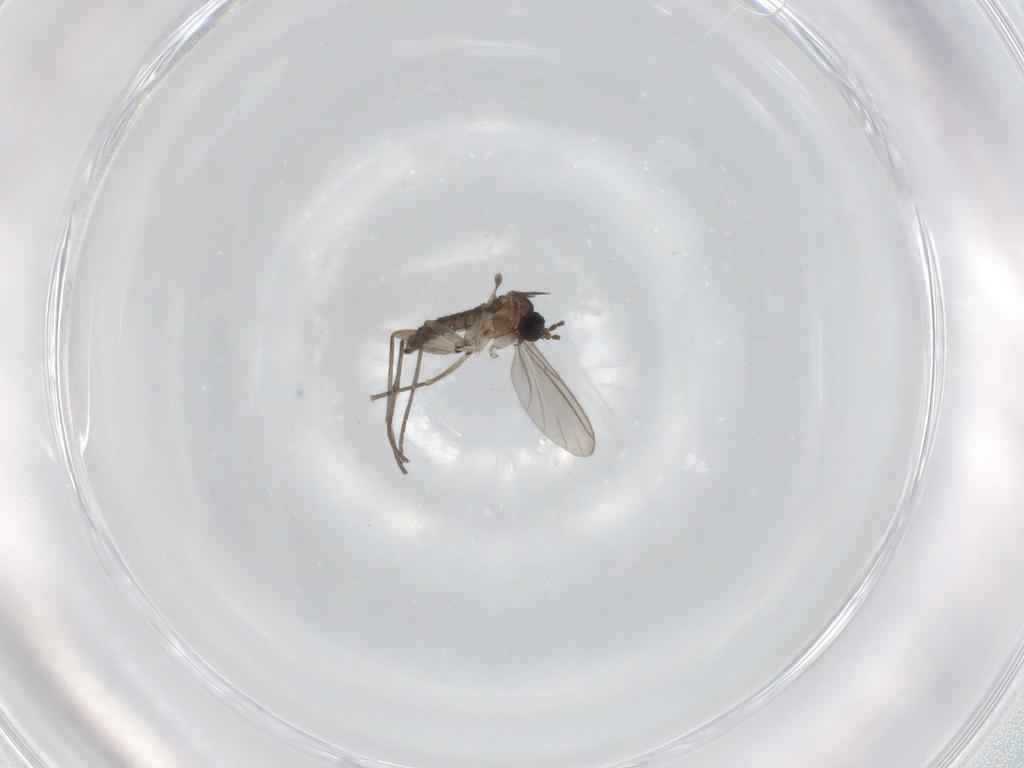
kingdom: Animalia
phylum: Arthropoda
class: Insecta
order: Diptera
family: Sciaridae
